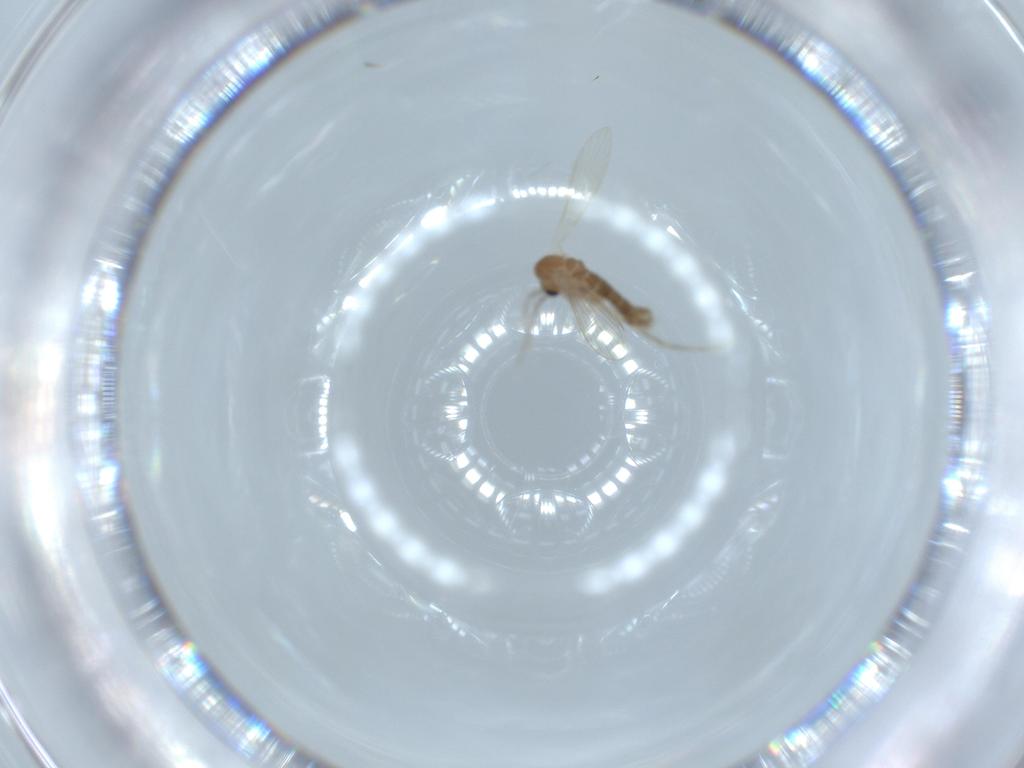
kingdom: Animalia
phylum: Arthropoda
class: Insecta
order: Diptera
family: Psychodidae
